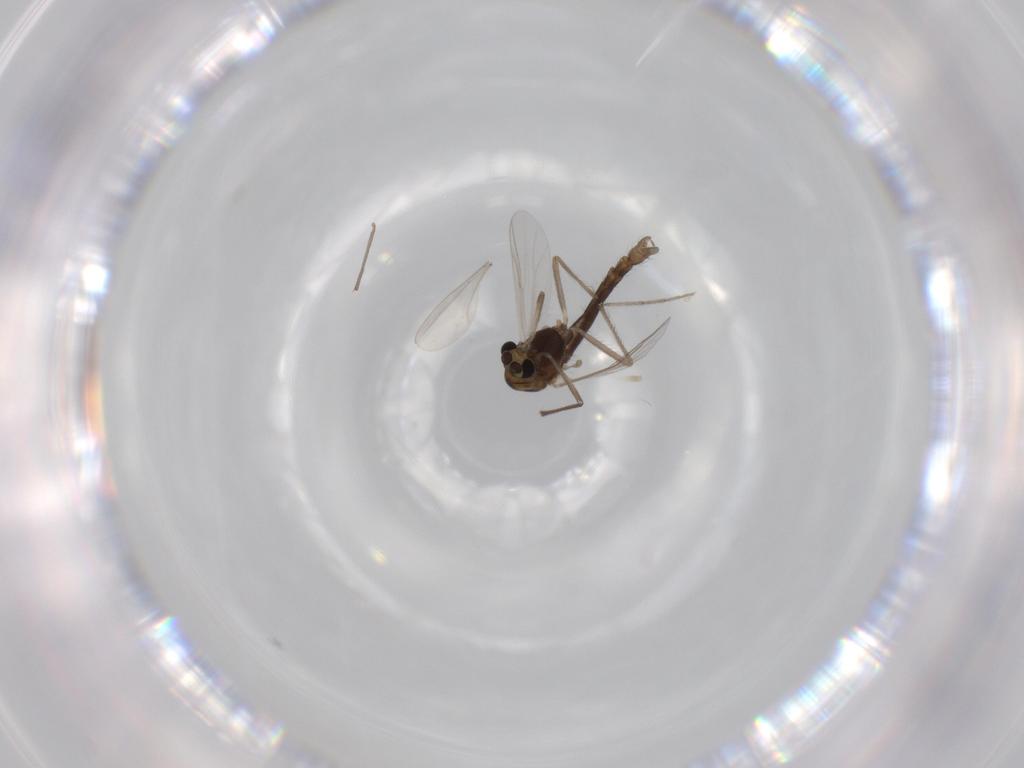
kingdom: Animalia
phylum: Arthropoda
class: Insecta
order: Diptera
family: Chironomidae
